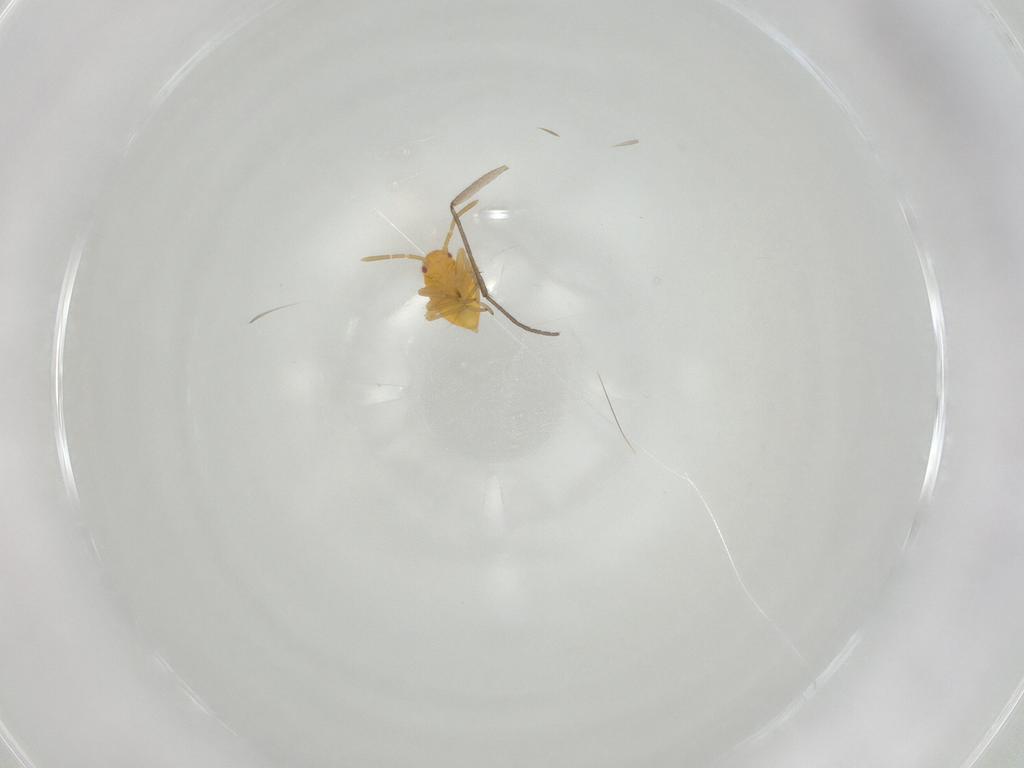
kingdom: Animalia
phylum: Arthropoda
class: Insecta
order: Hemiptera
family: Miridae
